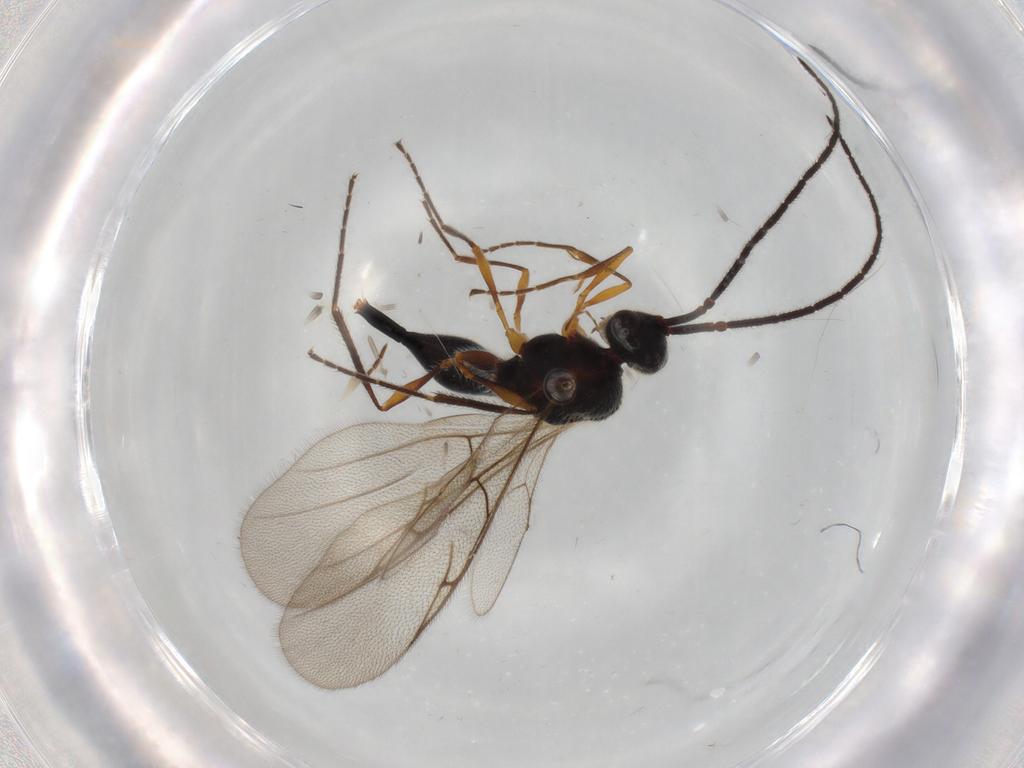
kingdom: Animalia
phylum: Arthropoda
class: Insecta
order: Hymenoptera
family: Diapriidae
